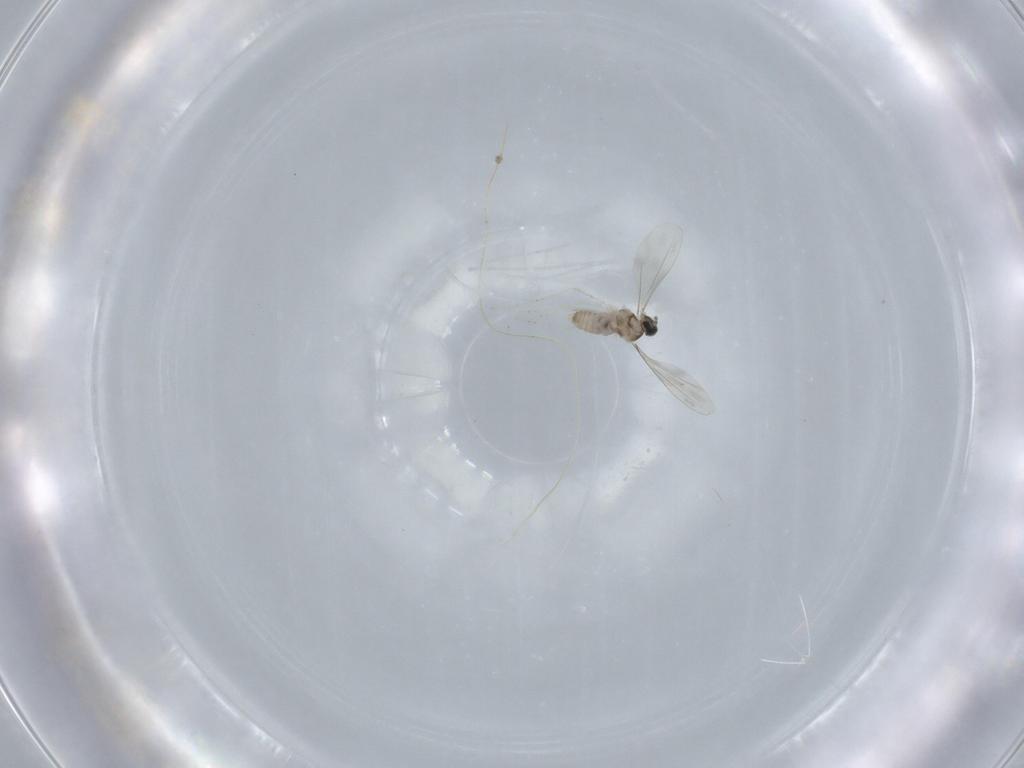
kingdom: Animalia
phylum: Arthropoda
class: Insecta
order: Diptera
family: Cecidomyiidae
